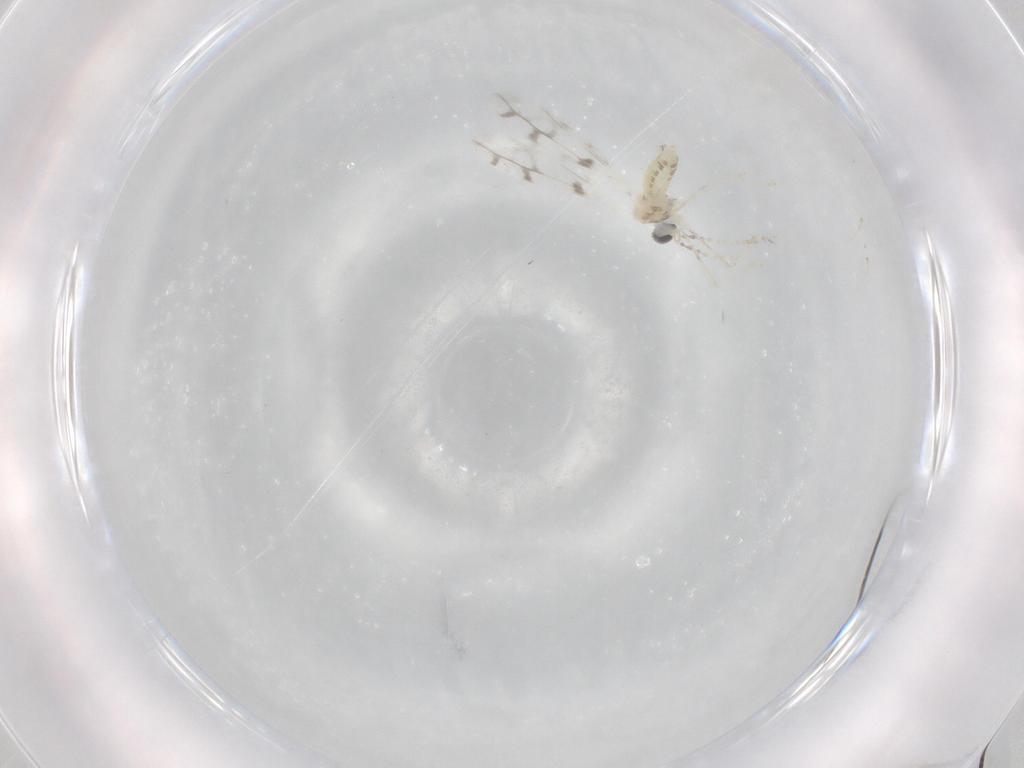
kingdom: Animalia
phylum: Arthropoda
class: Insecta
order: Diptera
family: Cecidomyiidae
